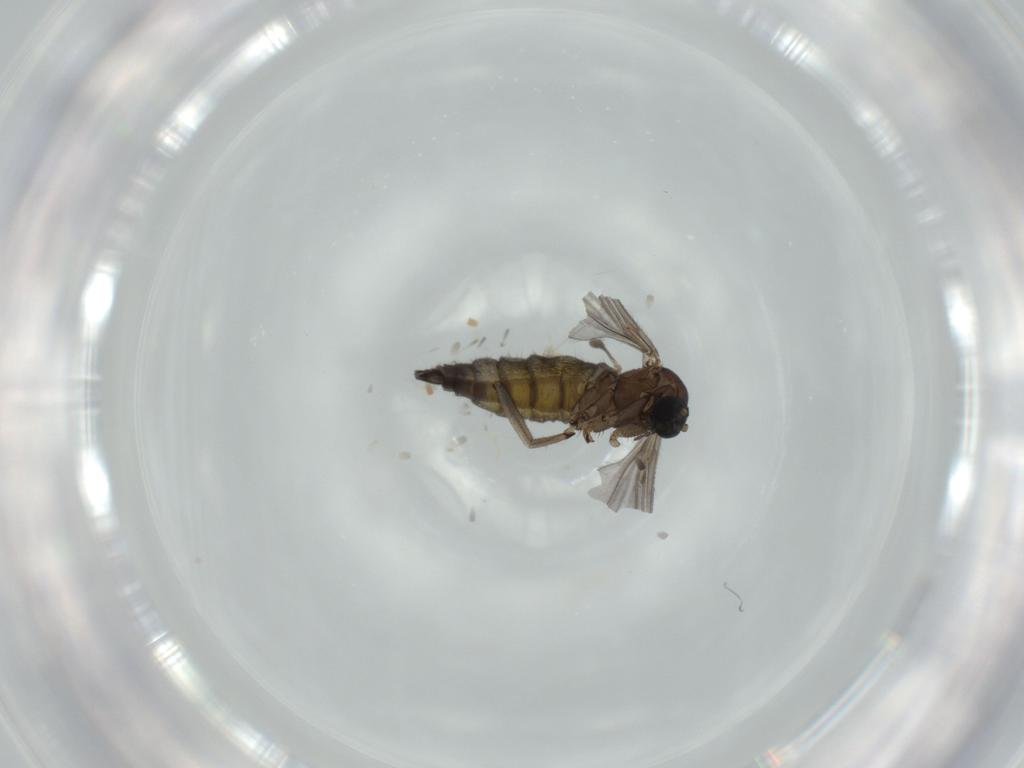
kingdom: Animalia
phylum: Arthropoda
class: Insecta
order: Diptera
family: Sciaridae
